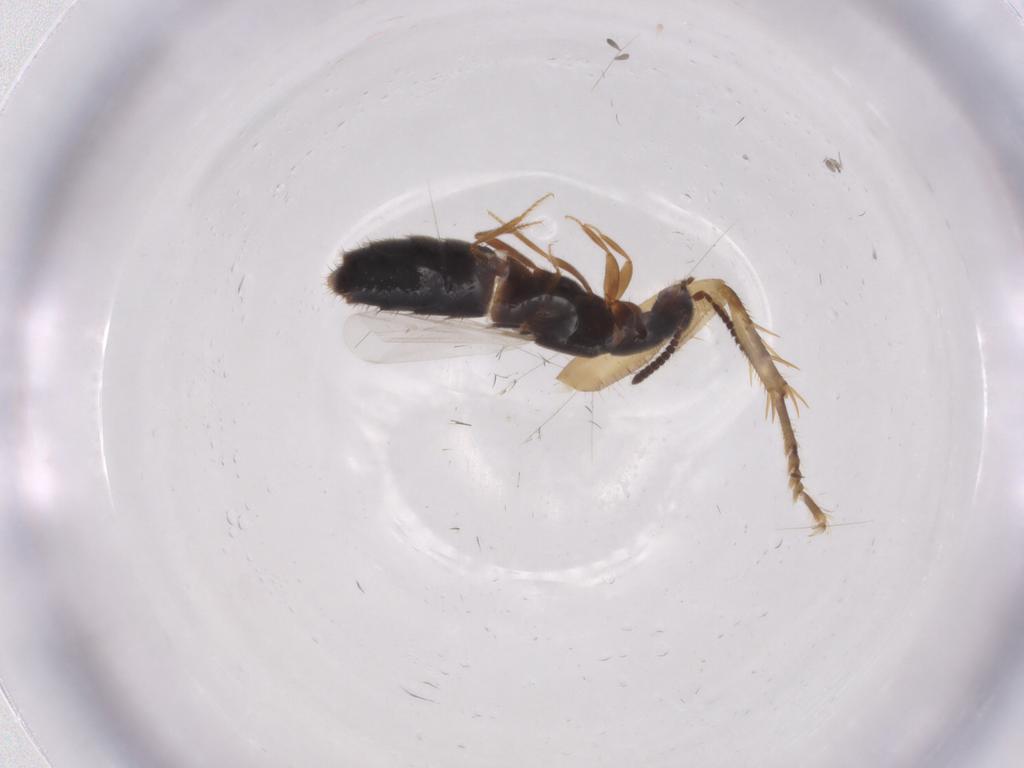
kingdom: Animalia
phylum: Arthropoda
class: Insecta
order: Blattodea
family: Ectobiidae
